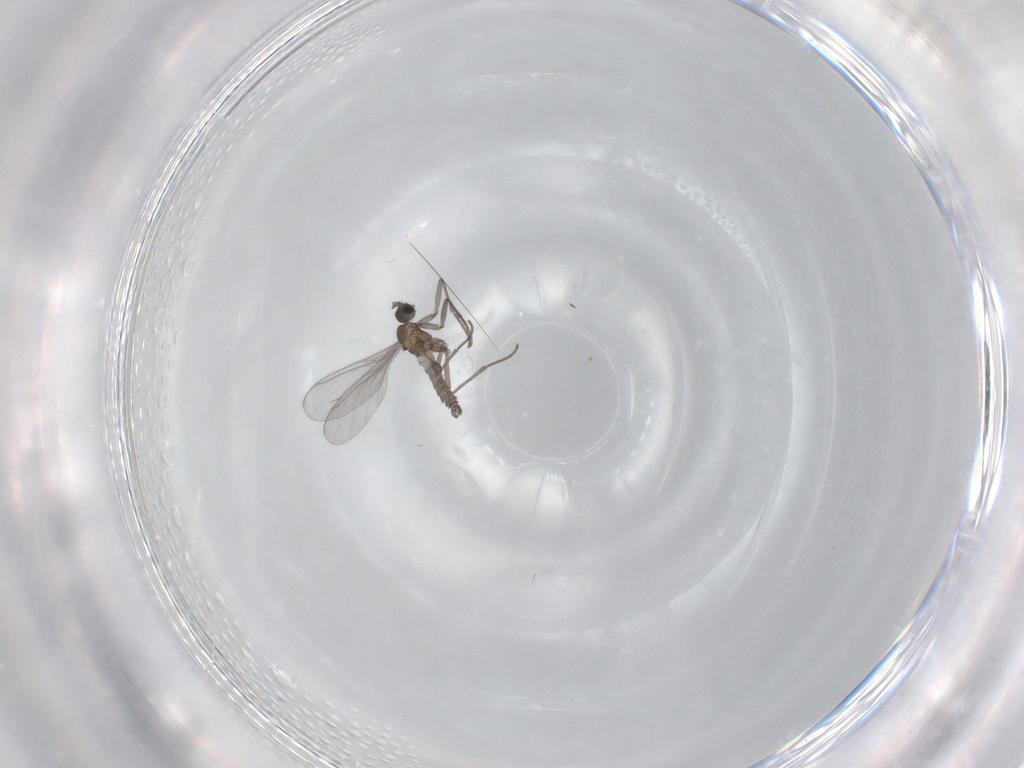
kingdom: Animalia
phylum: Arthropoda
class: Insecta
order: Diptera
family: Sciaridae
